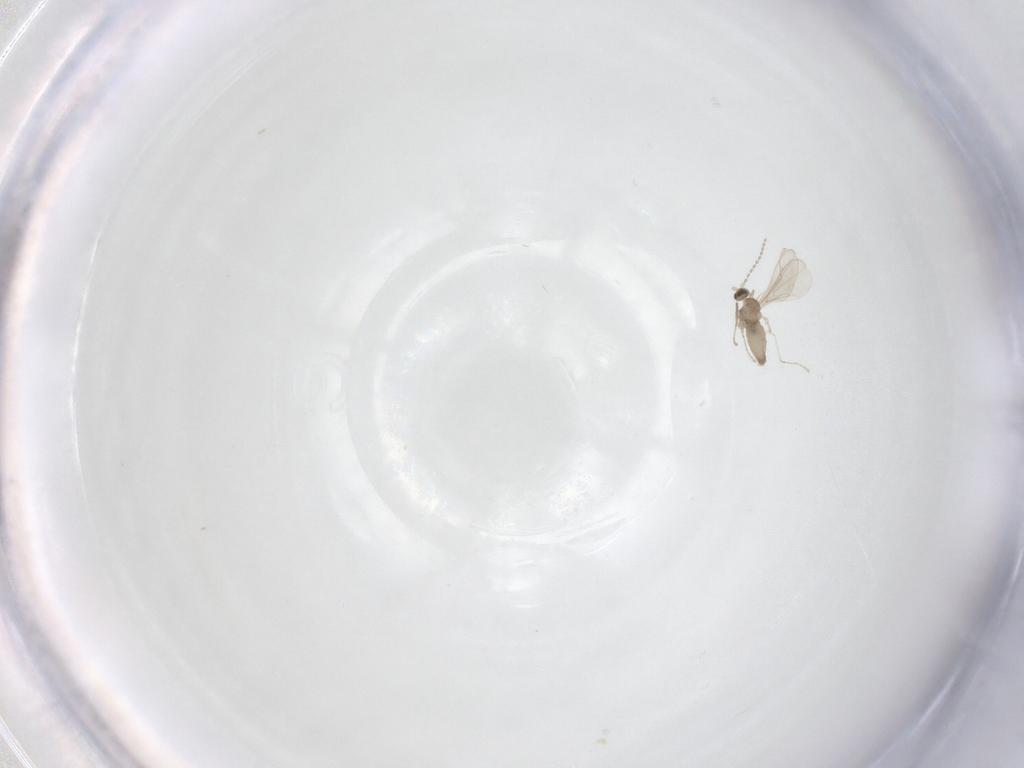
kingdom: Animalia
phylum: Arthropoda
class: Insecta
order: Diptera
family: Cecidomyiidae
